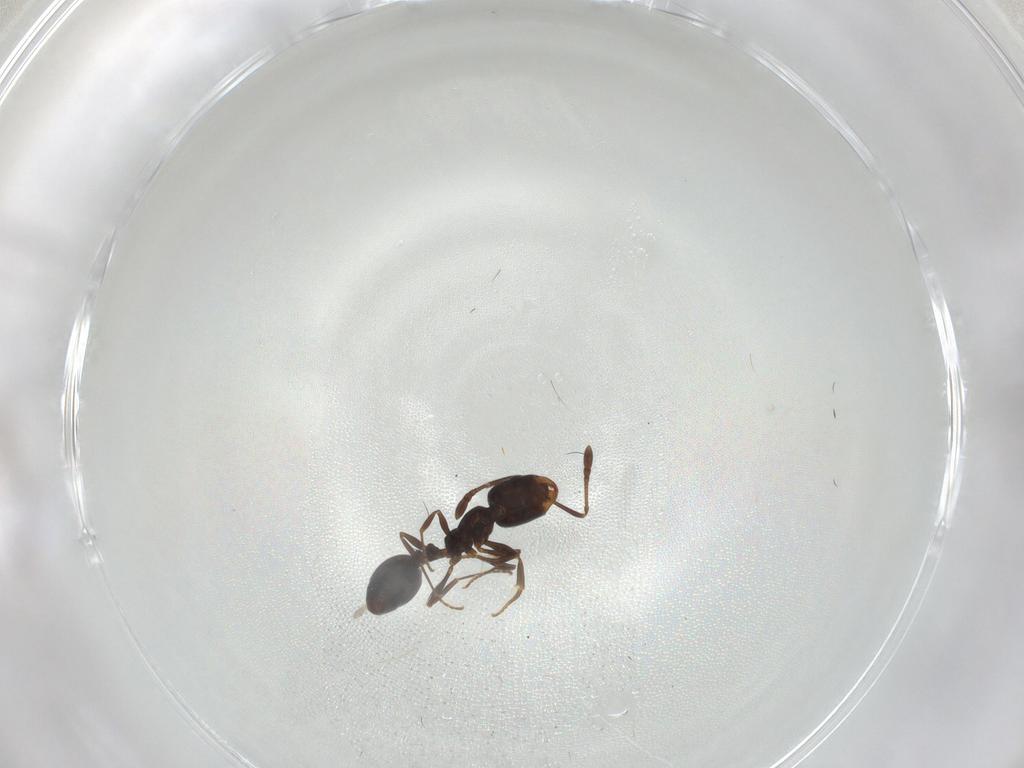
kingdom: Animalia
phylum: Arthropoda
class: Insecta
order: Hymenoptera
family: Formicidae
